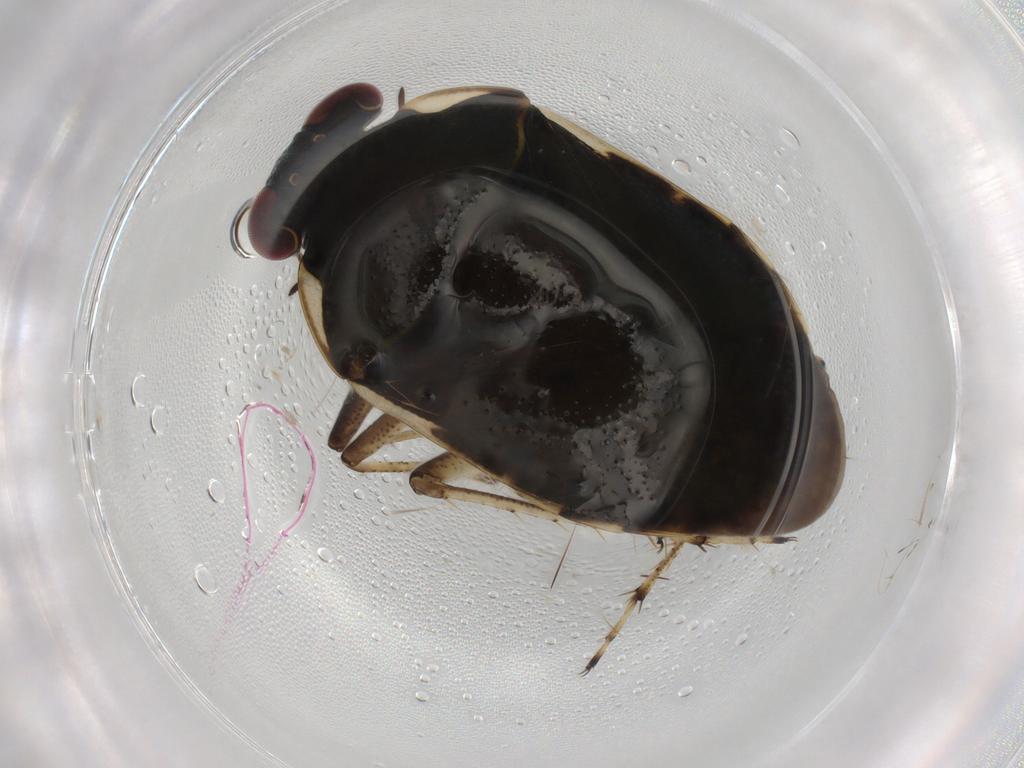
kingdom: Animalia
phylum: Arthropoda
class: Insecta
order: Hemiptera
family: Ochteridae
